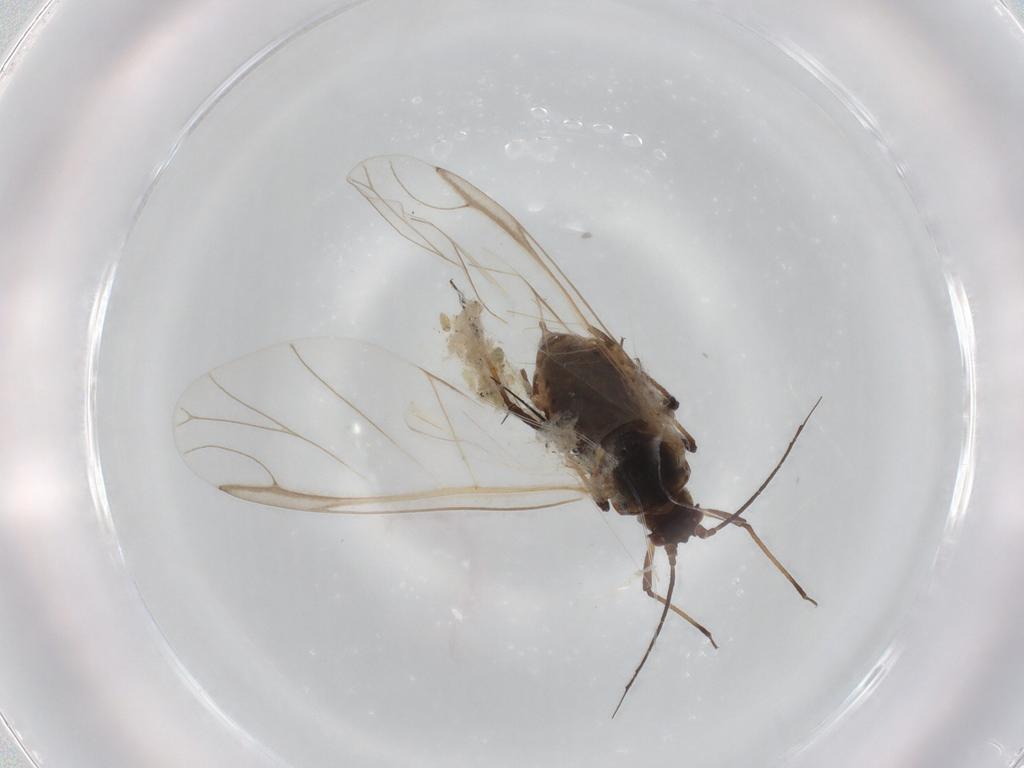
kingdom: Animalia
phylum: Arthropoda
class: Insecta
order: Hemiptera
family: Aphididae
